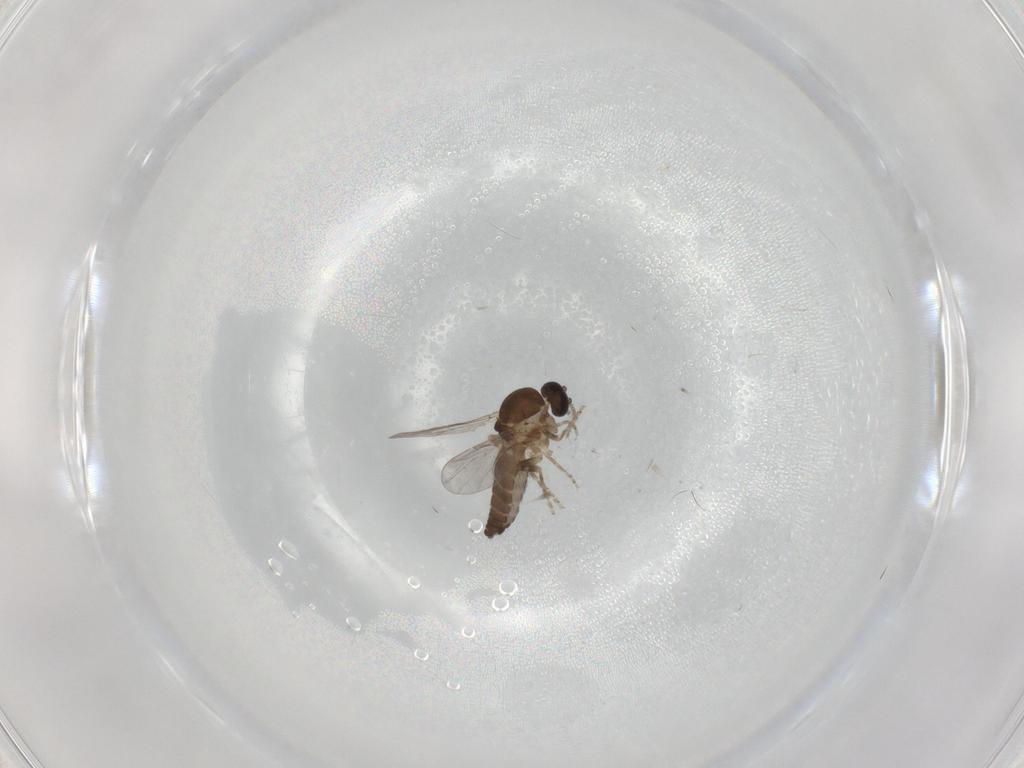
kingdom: Animalia
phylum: Arthropoda
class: Insecta
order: Diptera
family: Ceratopogonidae
